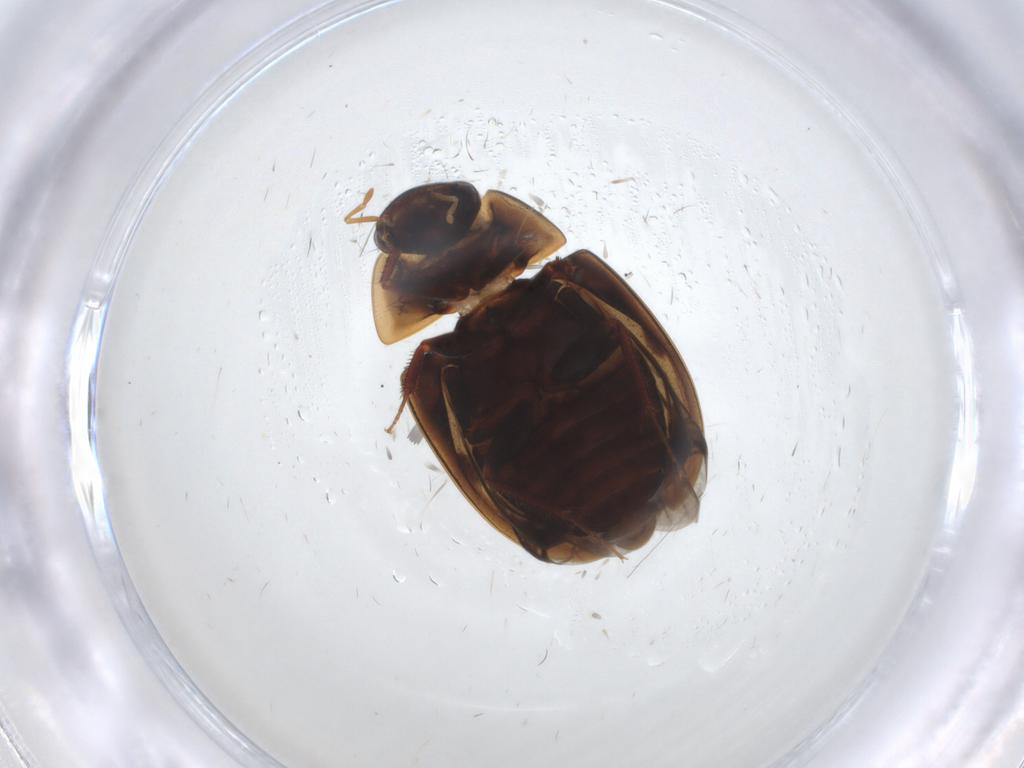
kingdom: Animalia
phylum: Arthropoda
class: Insecta
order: Coleoptera
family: Hydrophilidae
